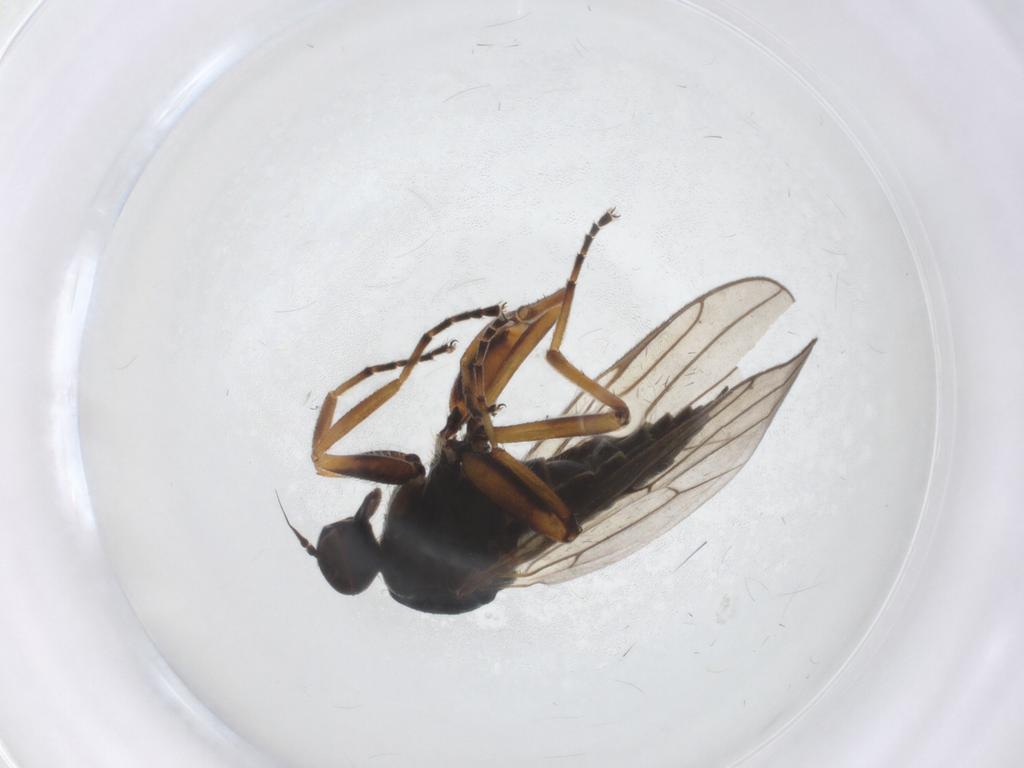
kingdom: Animalia
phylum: Arthropoda
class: Insecta
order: Diptera
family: Hybotidae
